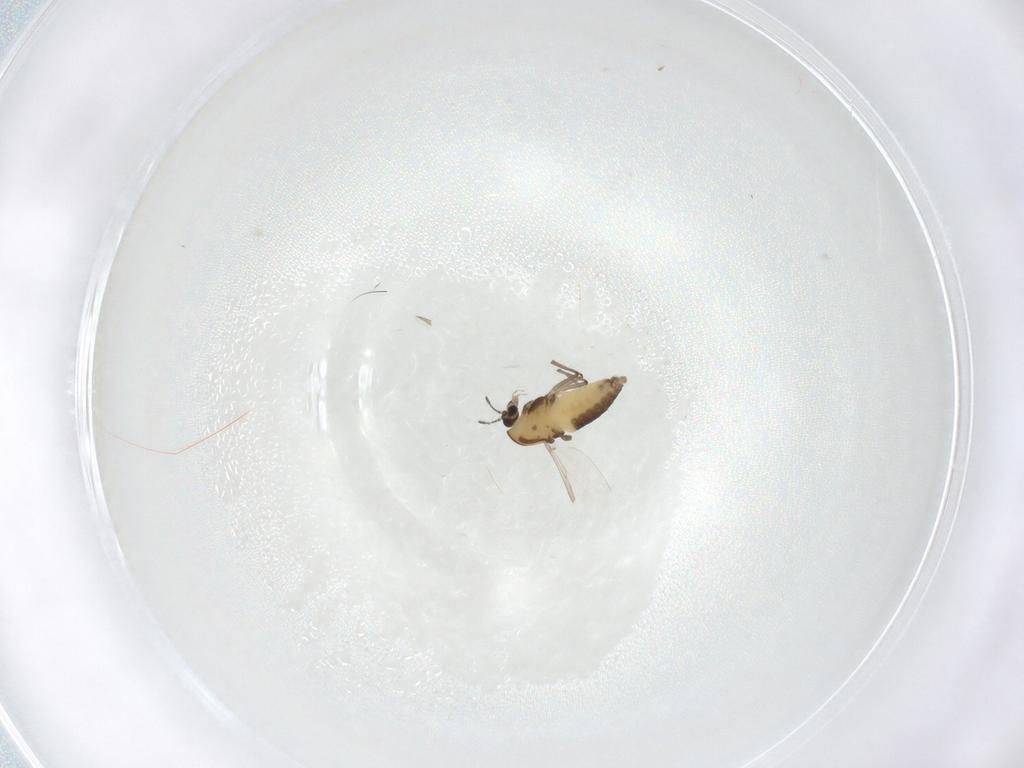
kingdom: Animalia
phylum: Arthropoda
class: Insecta
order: Diptera
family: Chironomidae
